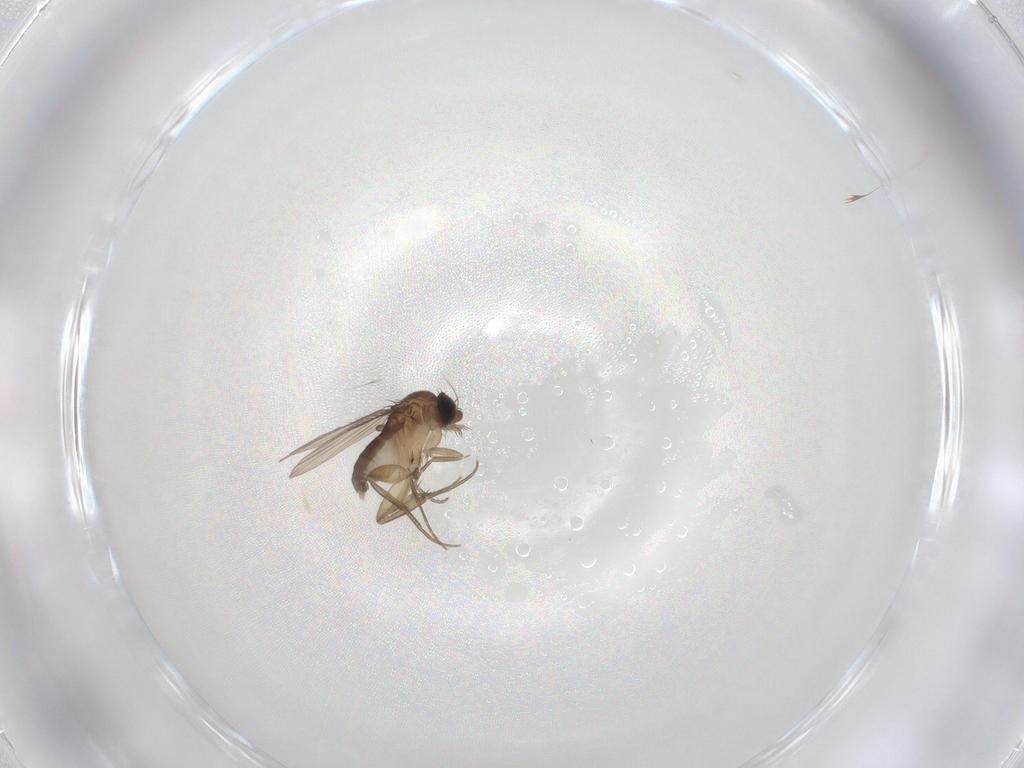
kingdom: Animalia
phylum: Arthropoda
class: Insecta
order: Diptera
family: Phoridae
